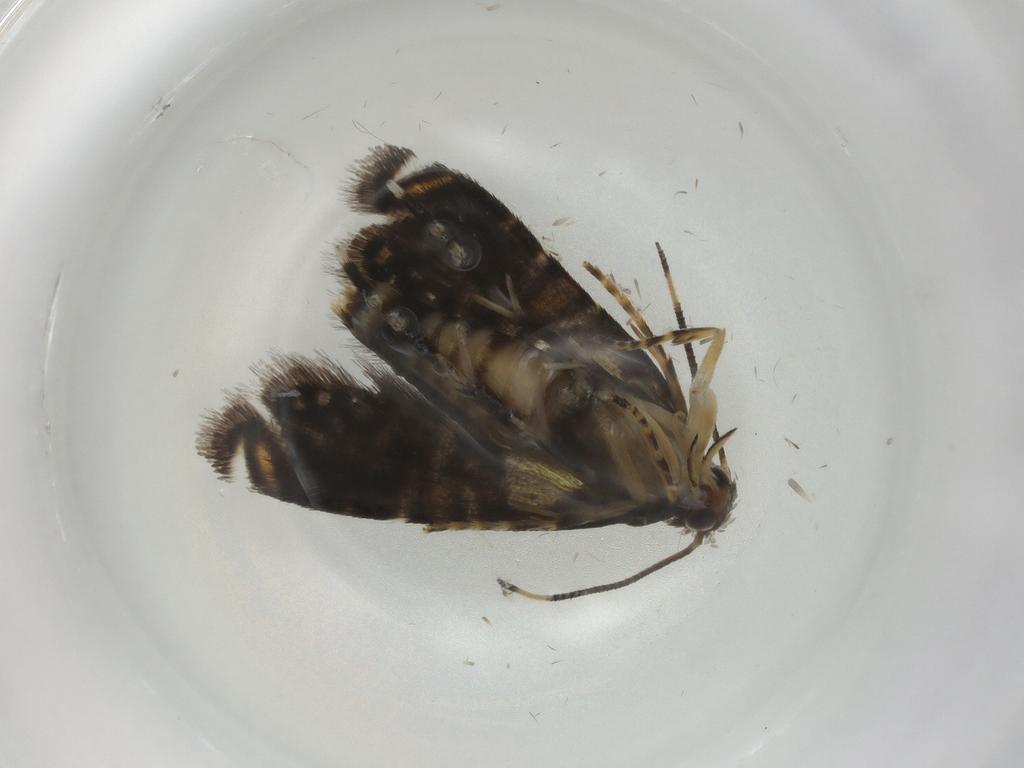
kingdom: Animalia
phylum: Arthropoda
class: Insecta
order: Lepidoptera
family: Glyphipterigidae
